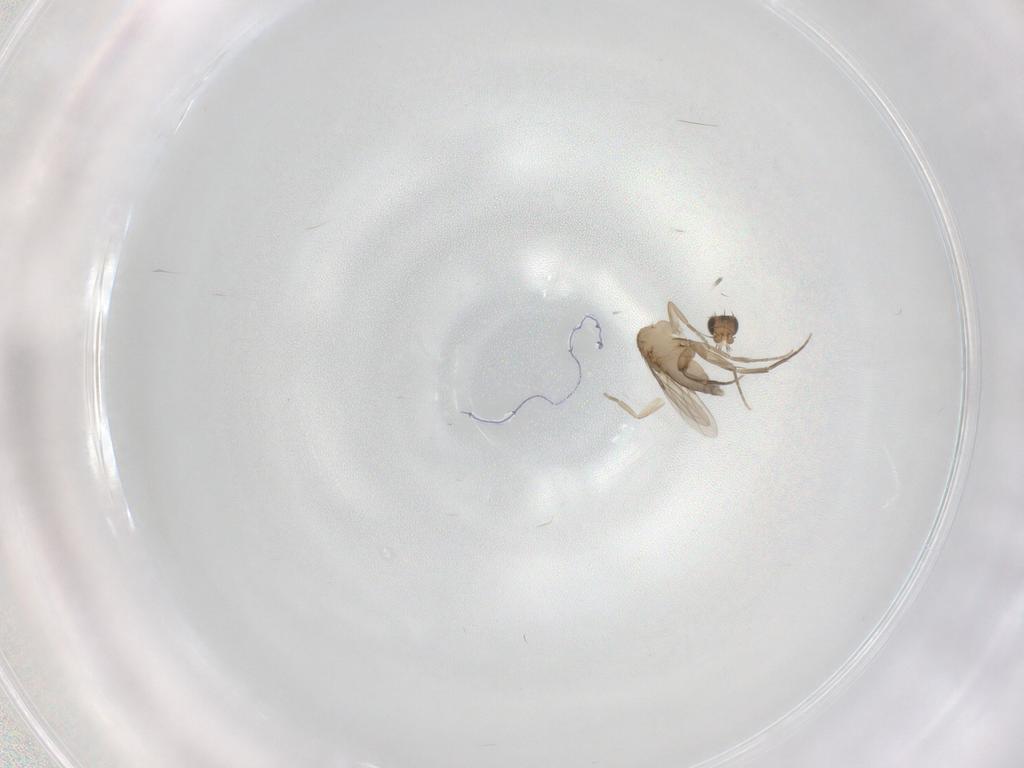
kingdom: Animalia
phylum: Arthropoda
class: Insecta
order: Diptera
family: Phoridae
